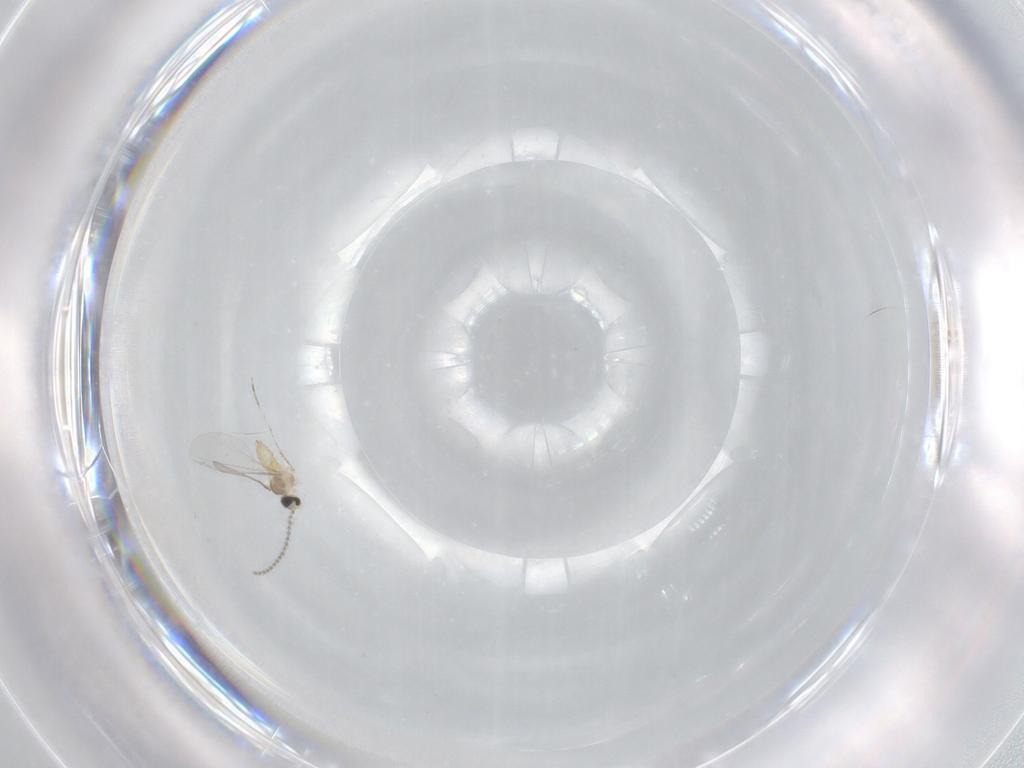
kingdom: Animalia
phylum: Arthropoda
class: Insecta
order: Diptera
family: Cecidomyiidae
